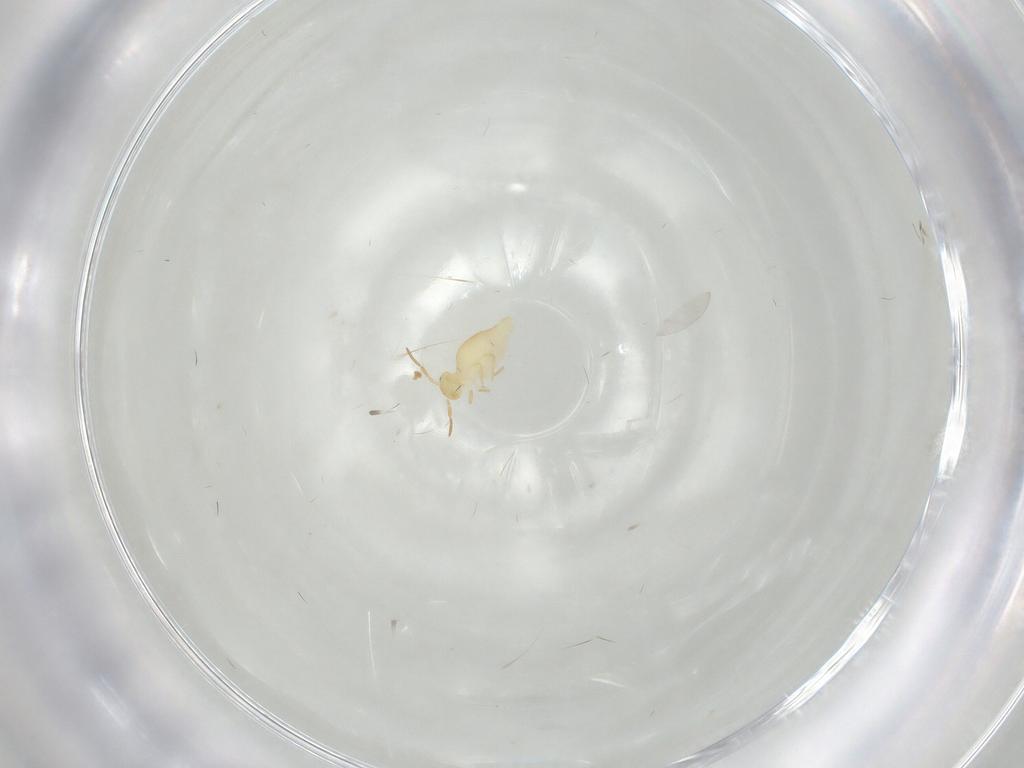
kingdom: Animalia
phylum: Arthropoda
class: Collembola
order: Symphypleona
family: Bourletiellidae
